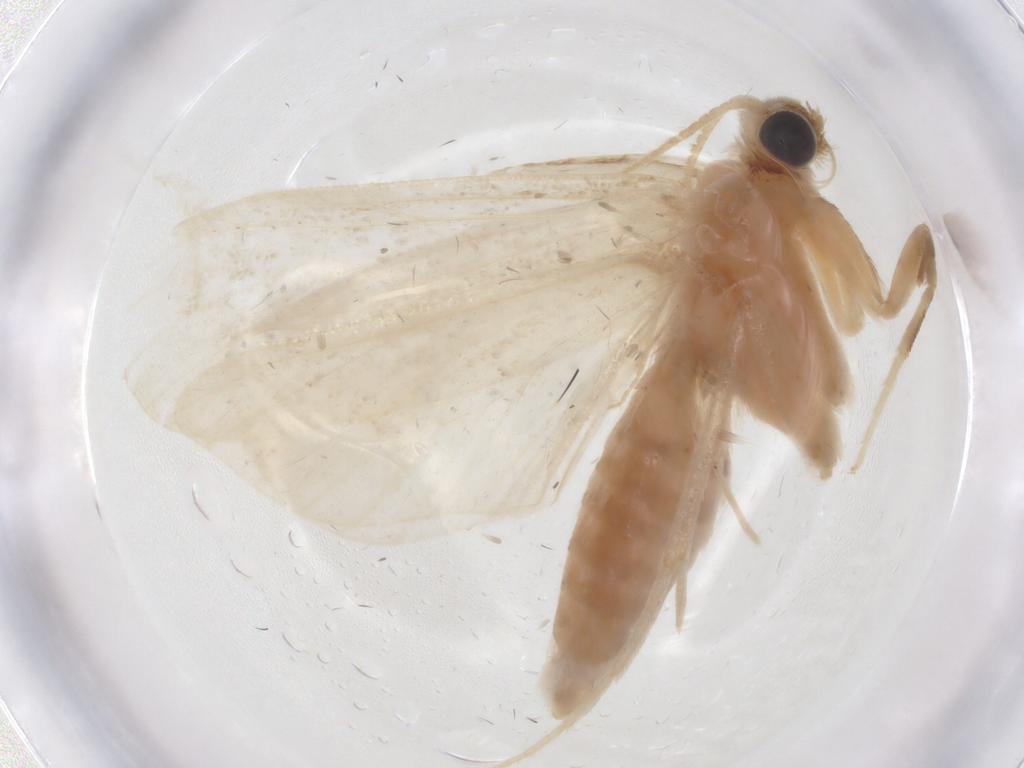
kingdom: Animalia
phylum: Arthropoda
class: Insecta
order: Lepidoptera
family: Crambidae
